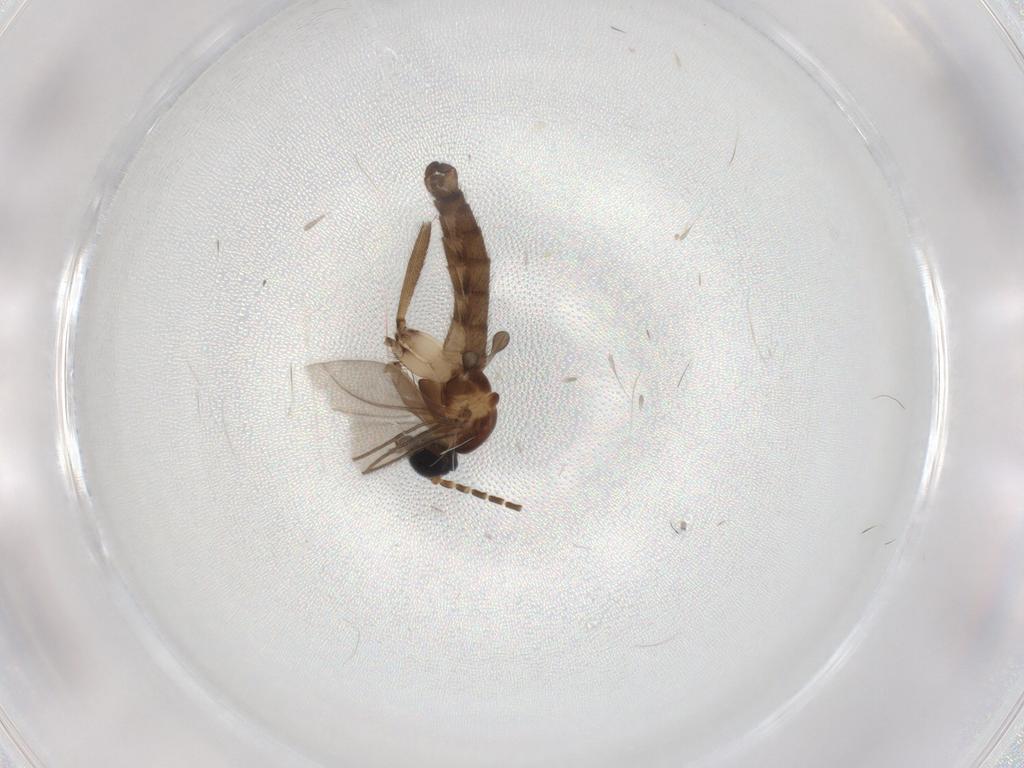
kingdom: Animalia
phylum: Arthropoda
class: Insecta
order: Diptera
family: Sciaridae
